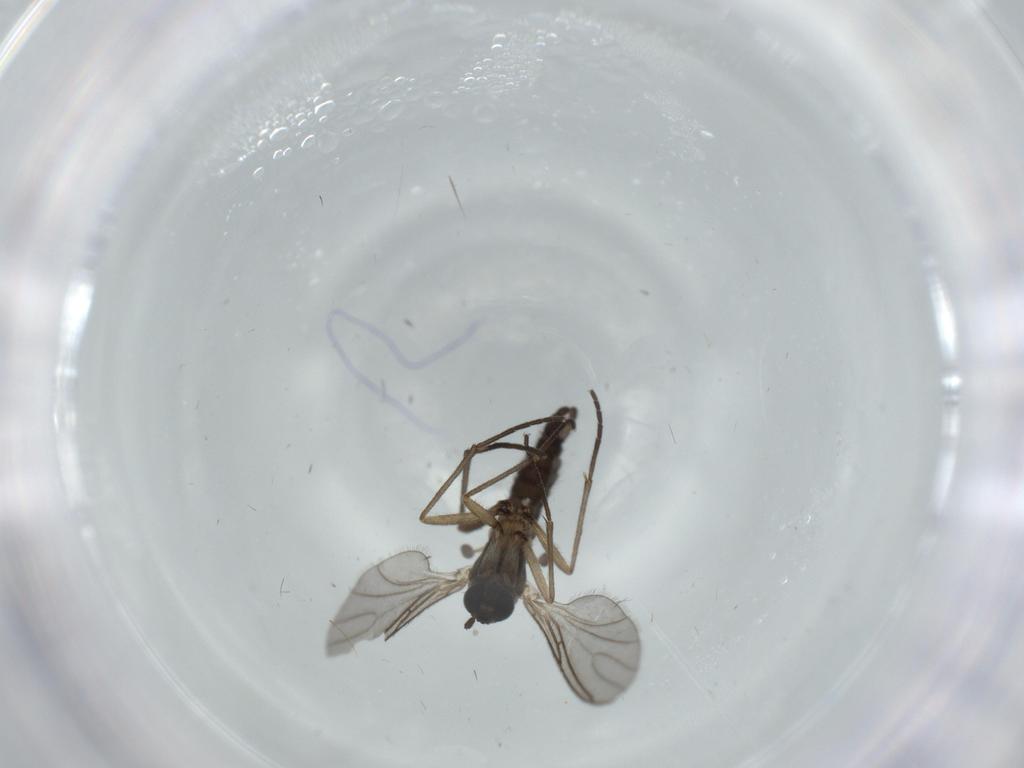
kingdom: Animalia
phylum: Arthropoda
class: Insecta
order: Diptera
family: Sciaridae
